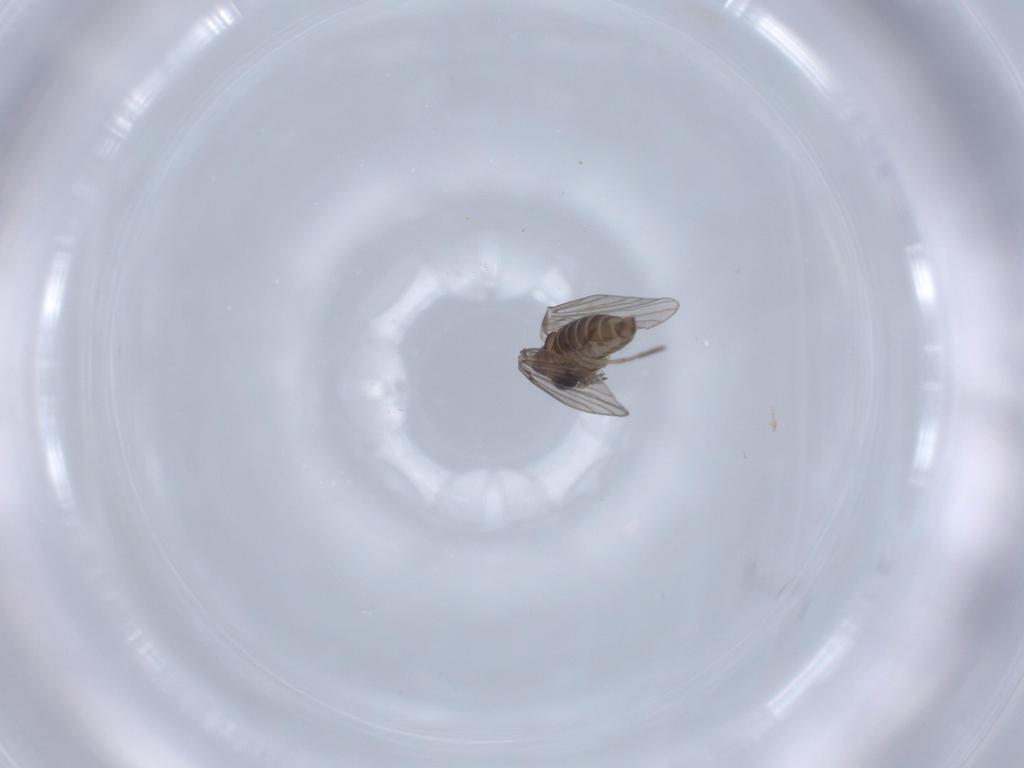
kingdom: Animalia
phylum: Arthropoda
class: Insecta
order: Diptera
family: Psychodidae
